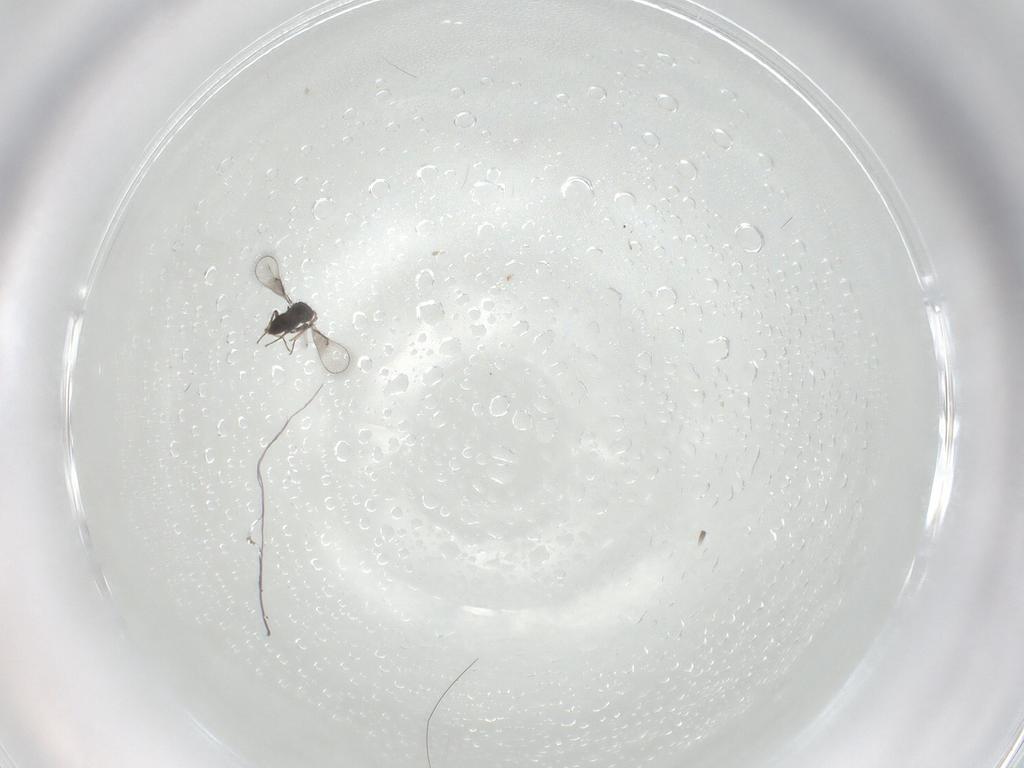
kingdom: Animalia
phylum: Arthropoda
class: Insecta
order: Hymenoptera
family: Trichogrammatidae
